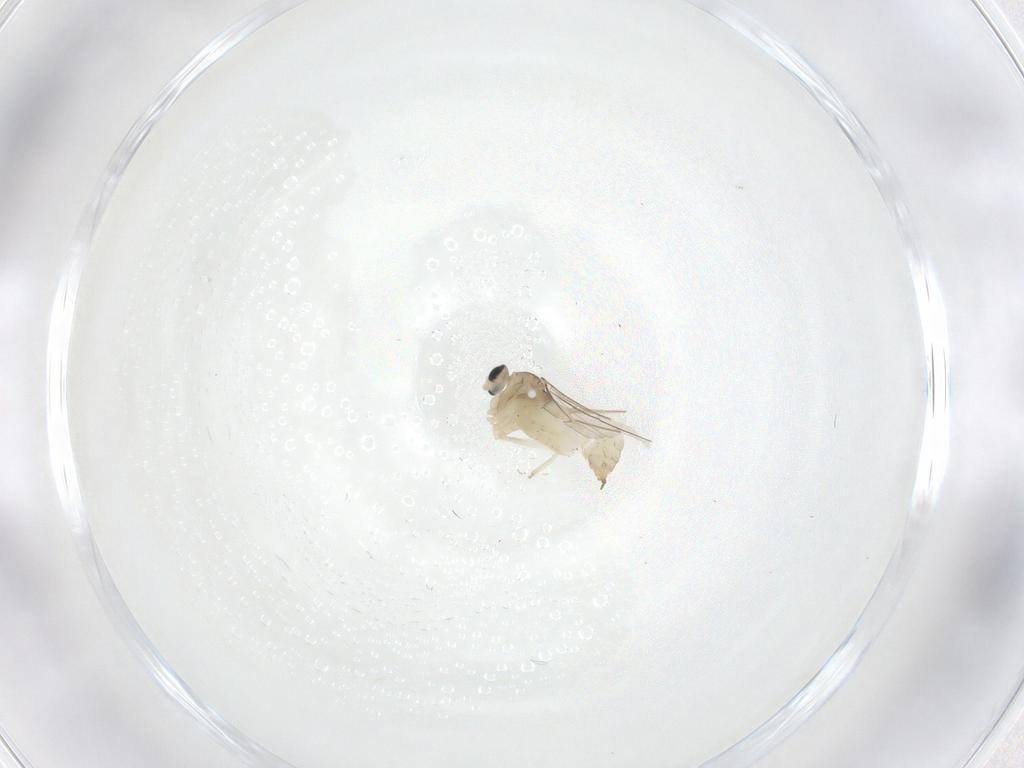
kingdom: Animalia
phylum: Arthropoda
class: Insecta
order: Diptera
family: Cecidomyiidae
